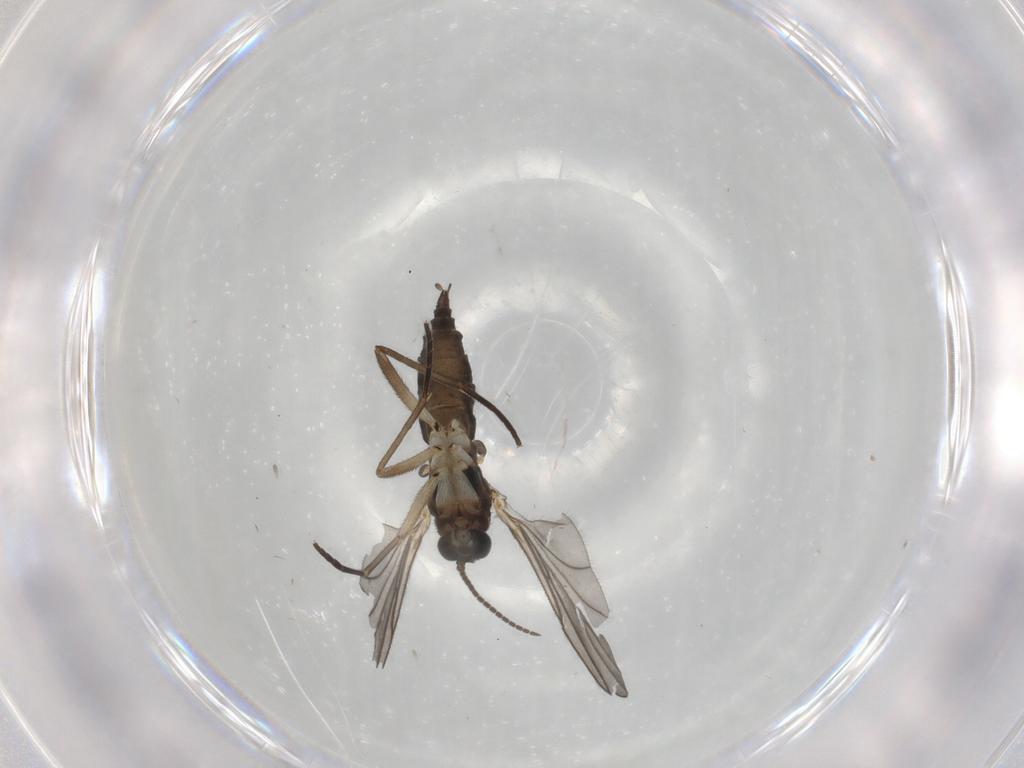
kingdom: Animalia
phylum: Arthropoda
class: Insecta
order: Diptera
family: Sciaridae
